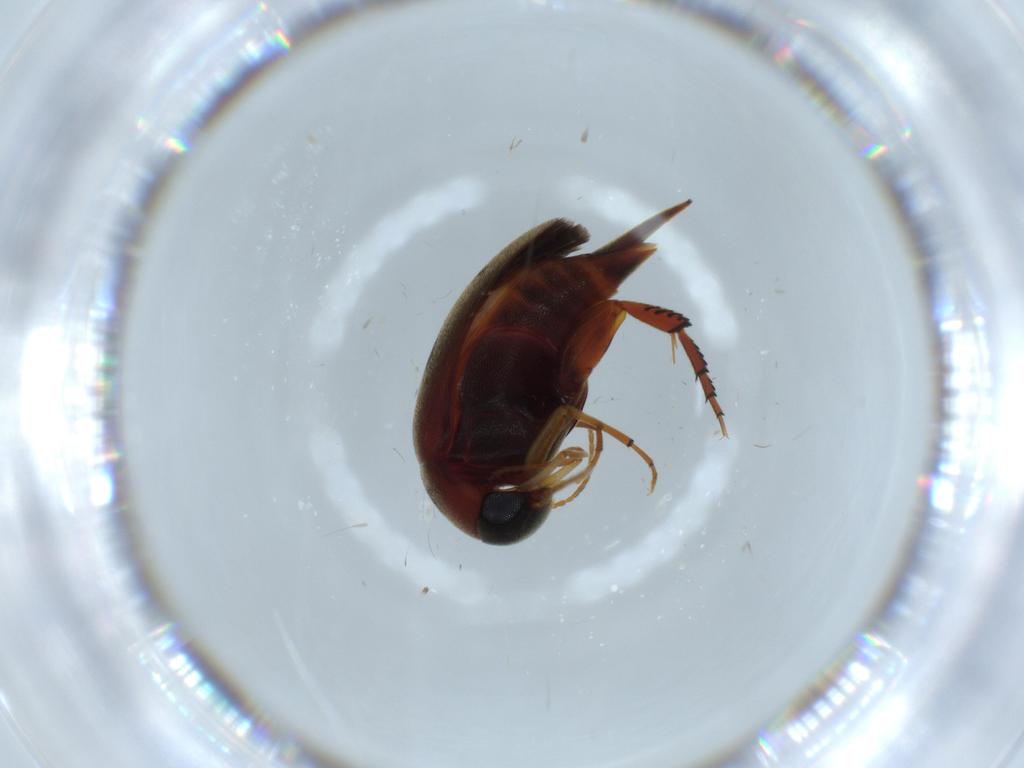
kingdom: Animalia
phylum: Arthropoda
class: Insecta
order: Coleoptera
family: Mordellidae
